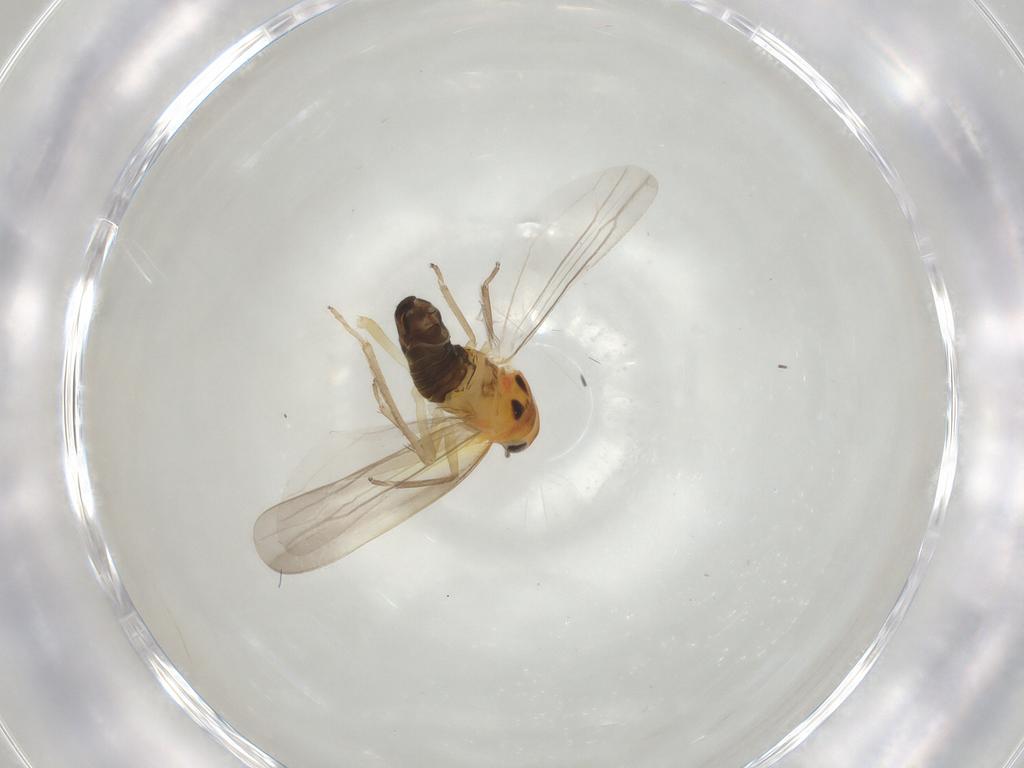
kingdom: Animalia
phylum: Arthropoda
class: Insecta
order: Hemiptera
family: Cicadellidae
